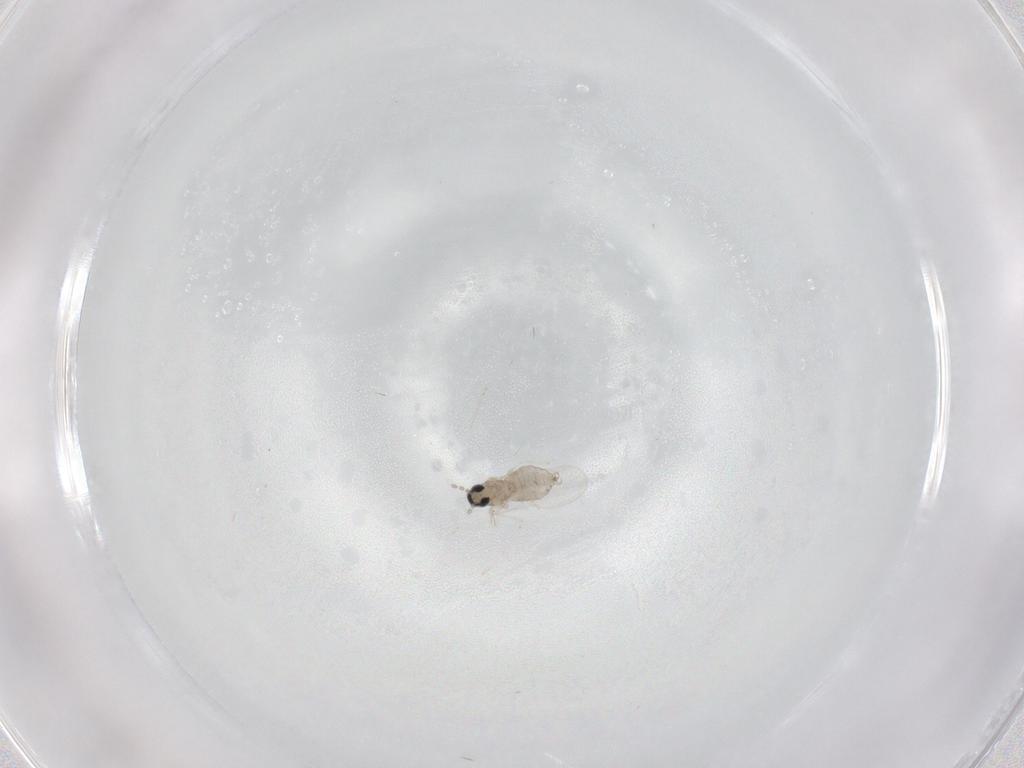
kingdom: Animalia
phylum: Arthropoda
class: Insecta
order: Diptera
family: Cecidomyiidae
